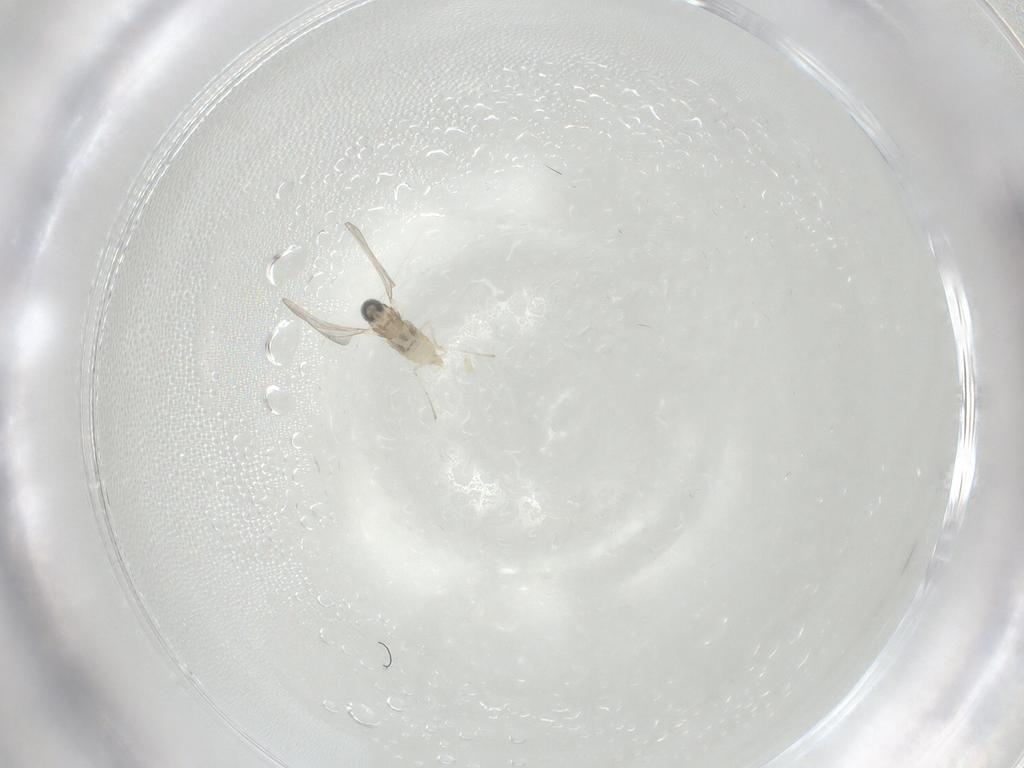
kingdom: Animalia
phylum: Arthropoda
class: Insecta
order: Diptera
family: Cecidomyiidae
